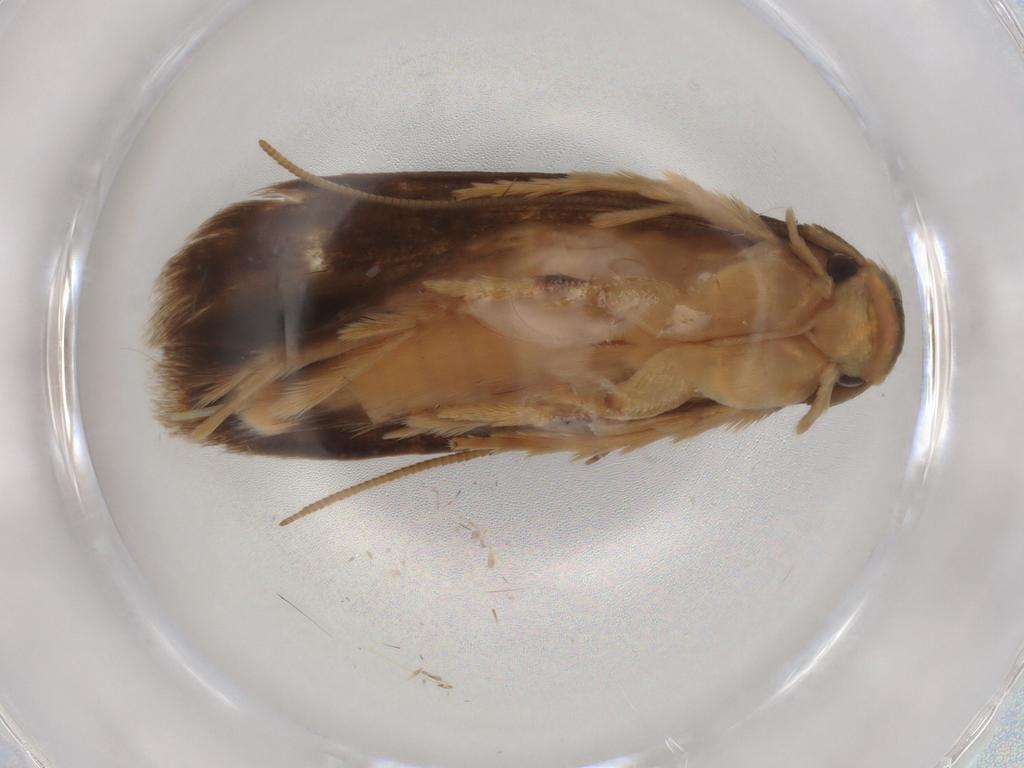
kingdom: Animalia
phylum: Arthropoda
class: Insecta
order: Lepidoptera
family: Tineidae
